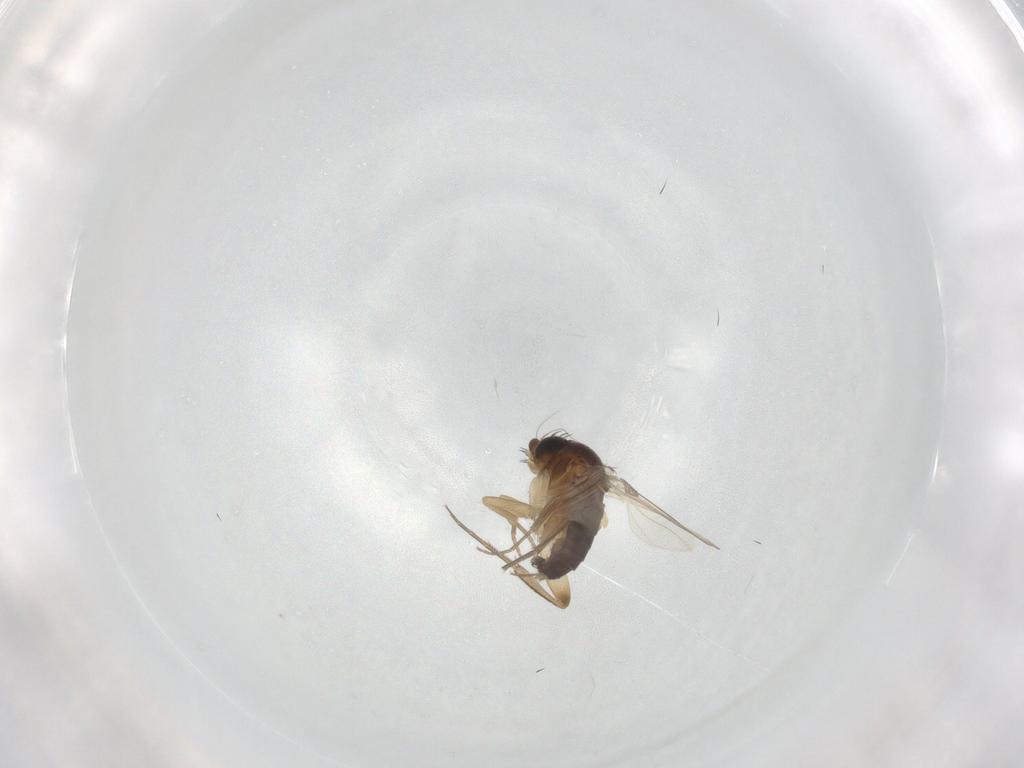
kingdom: Animalia
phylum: Arthropoda
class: Insecta
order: Diptera
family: Phoridae
